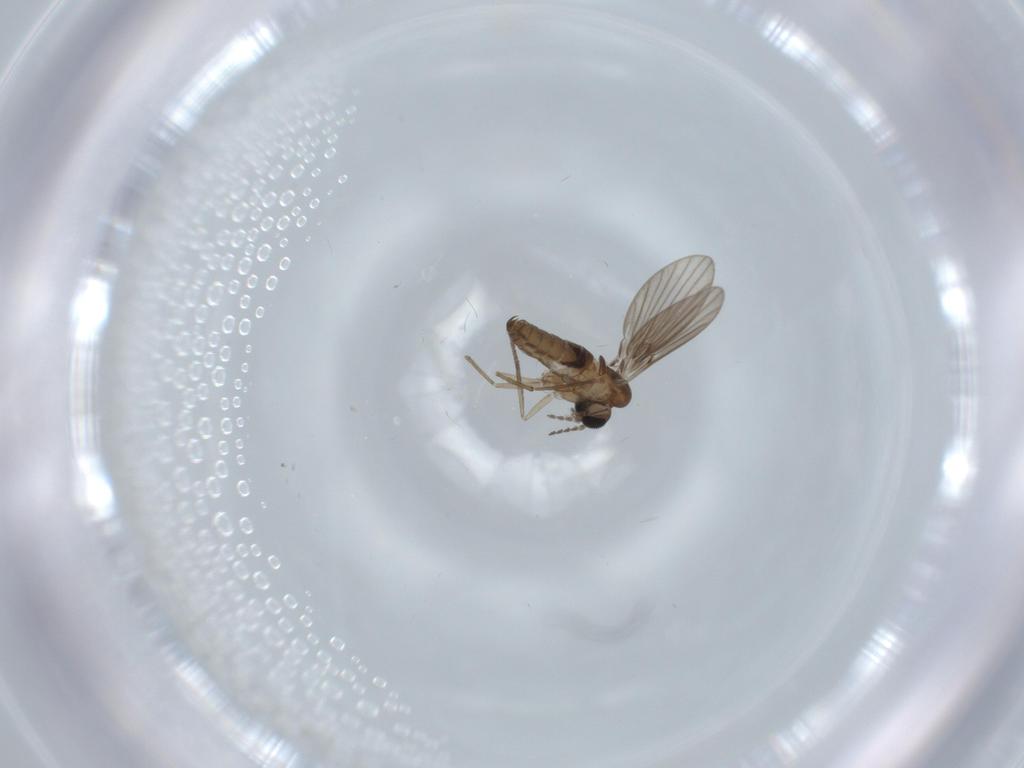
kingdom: Animalia
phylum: Arthropoda
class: Insecta
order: Diptera
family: Psychodidae
